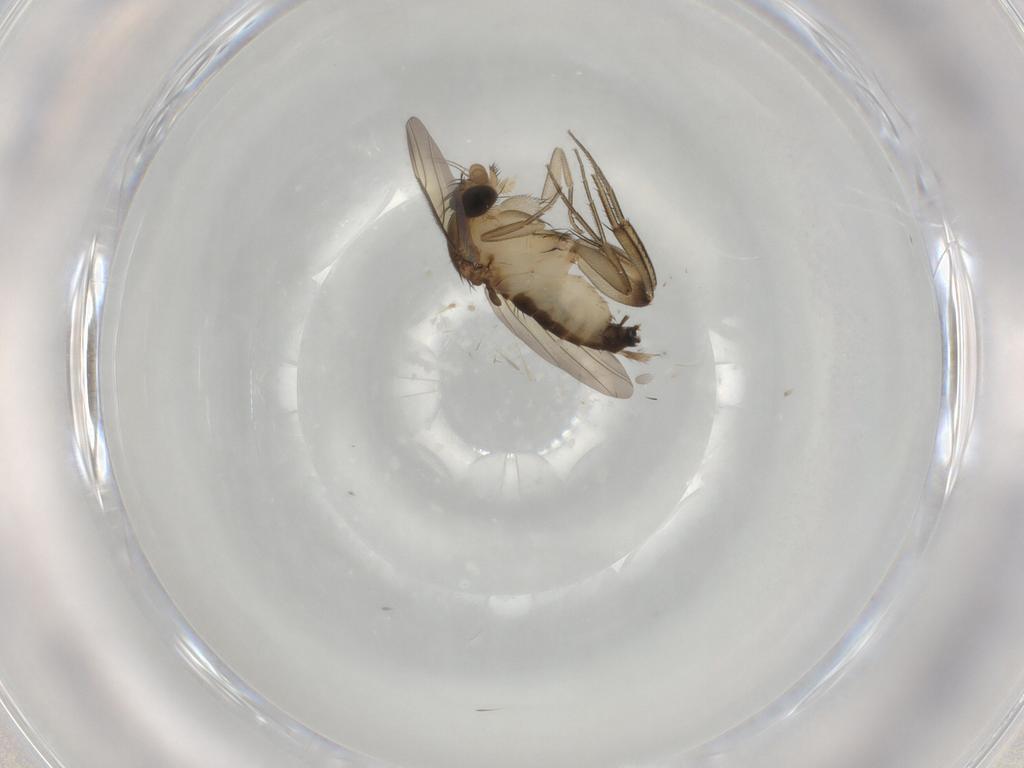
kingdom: Animalia
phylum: Arthropoda
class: Insecta
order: Diptera
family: Phoridae
